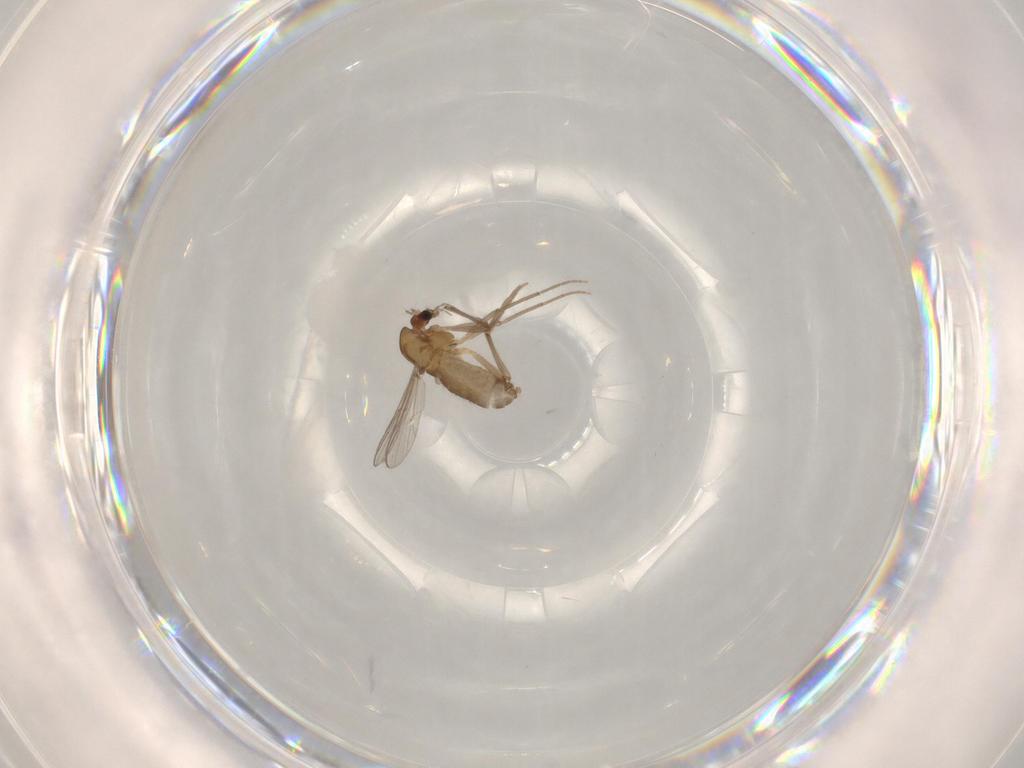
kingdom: Animalia
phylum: Arthropoda
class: Insecta
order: Diptera
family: Chironomidae
